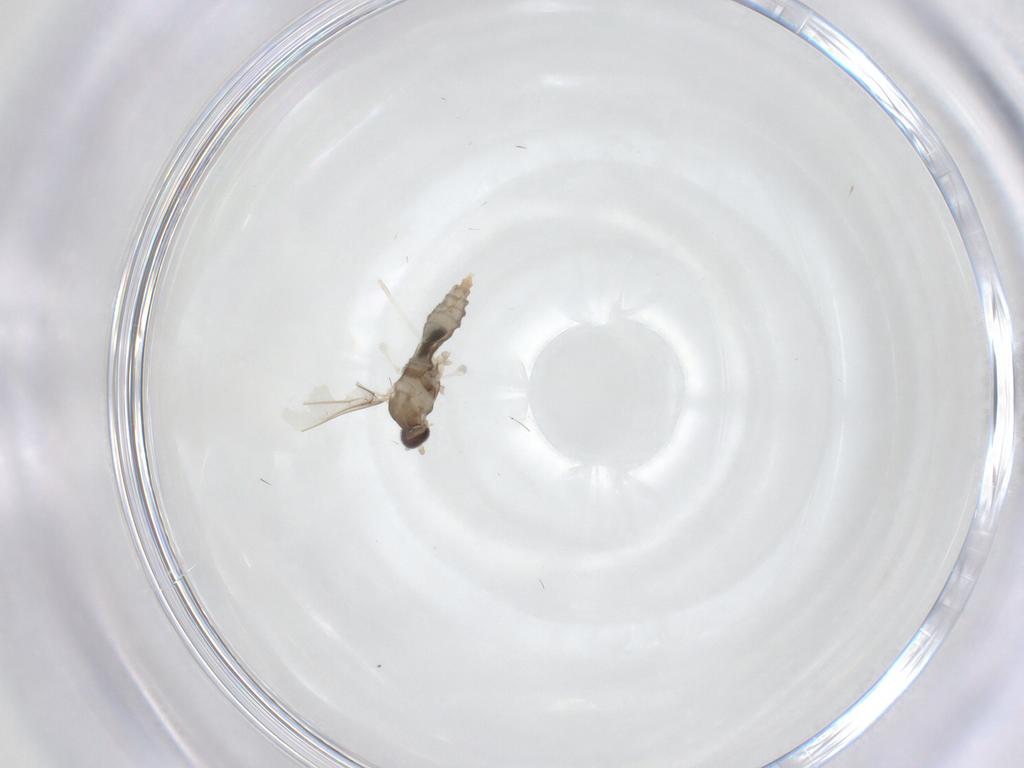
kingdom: Animalia
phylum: Arthropoda
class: Insecta
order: Diptera
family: Cecidomyiidae
